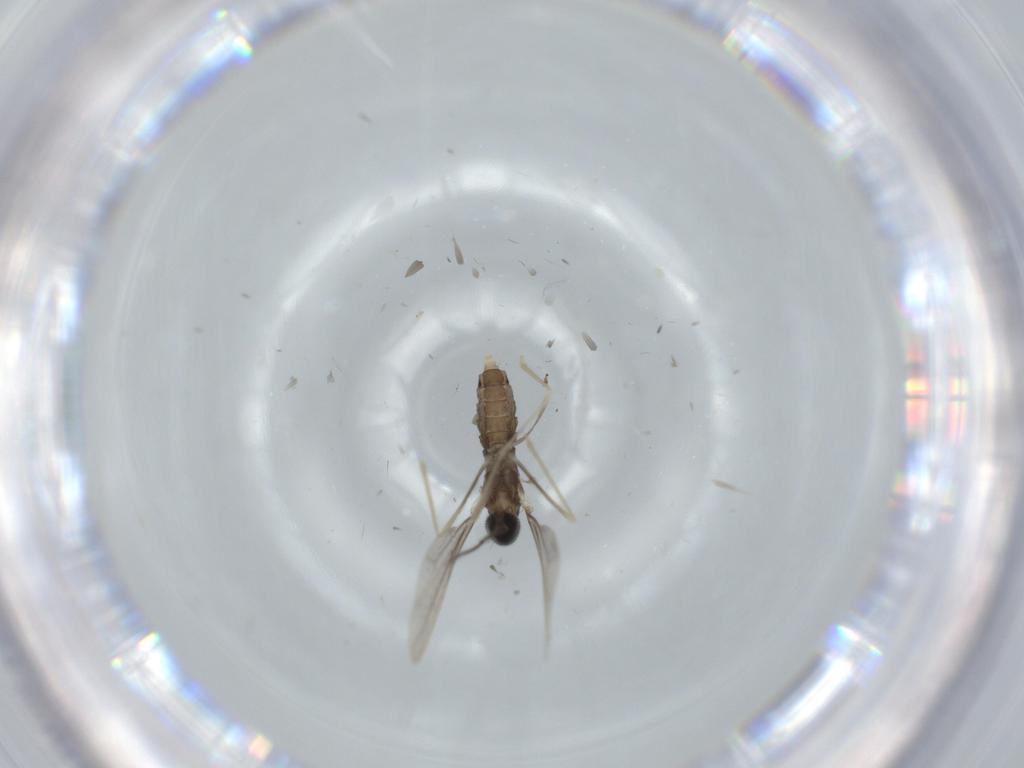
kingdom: Animalia
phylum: Arthropoda
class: Insecta
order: Diptera
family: Cecidomyiidae
